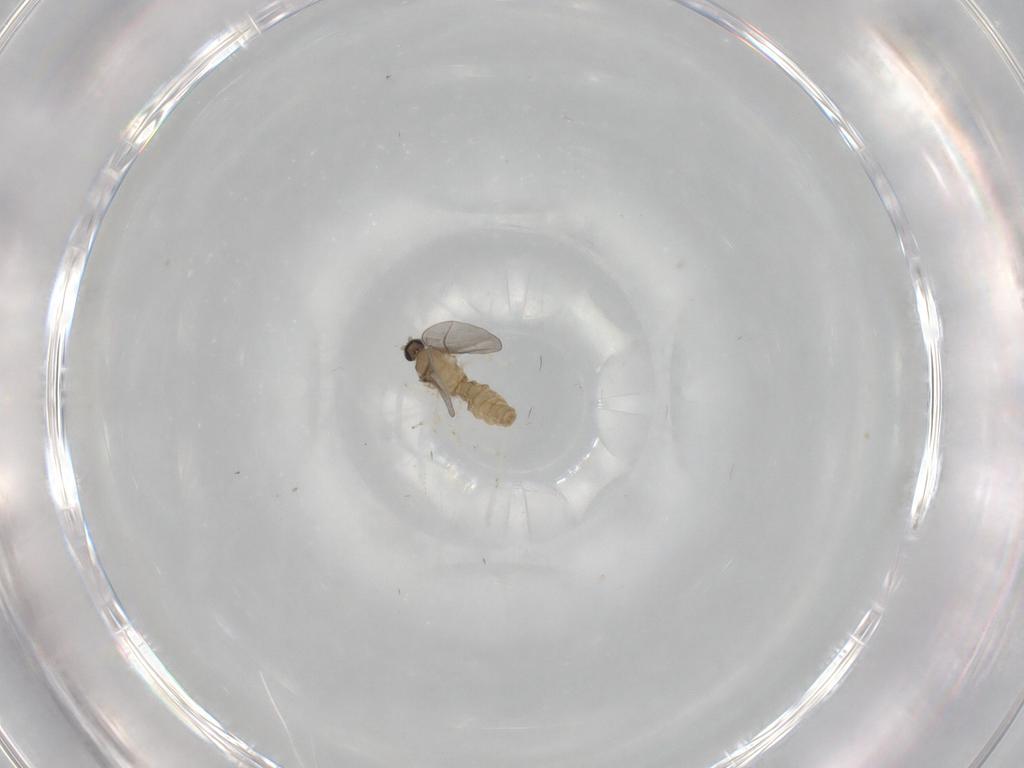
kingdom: Animalia
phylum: Arthropoda
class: Insecta
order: Diptera
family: Cecidomyiidae
